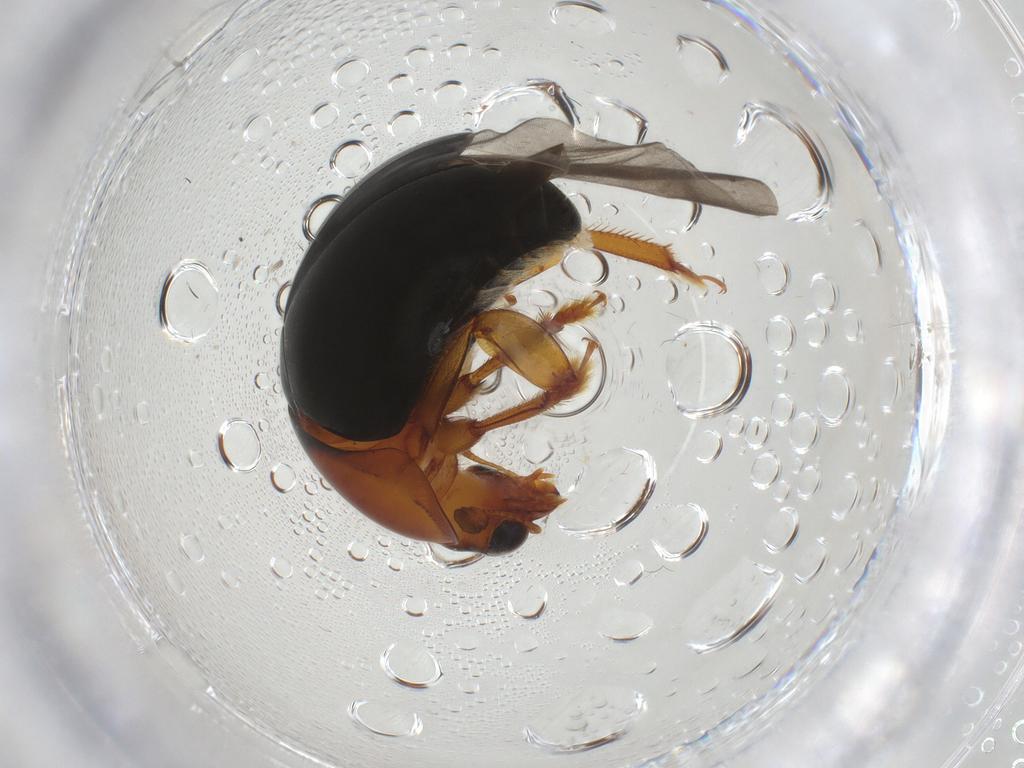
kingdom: Animalia
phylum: Arthropoda
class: Insecta
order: Coleoptera
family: Nitidulidae
